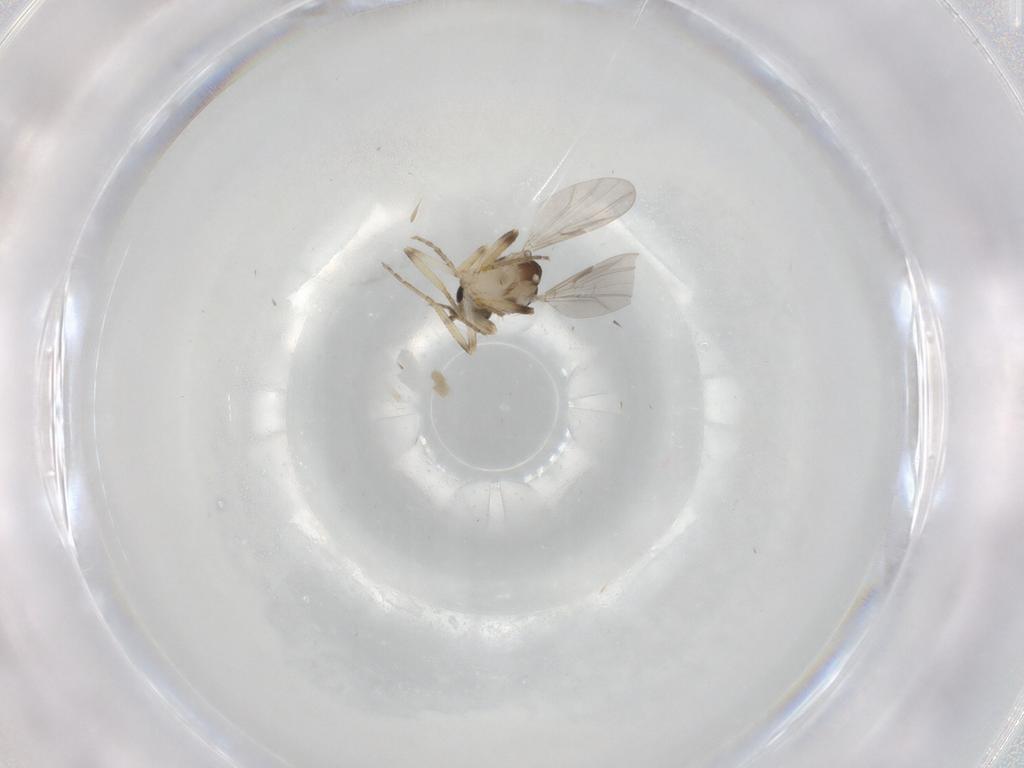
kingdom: Animalia
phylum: Arthropoda
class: Insecta
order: Diptera
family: Ceratopogonidae
